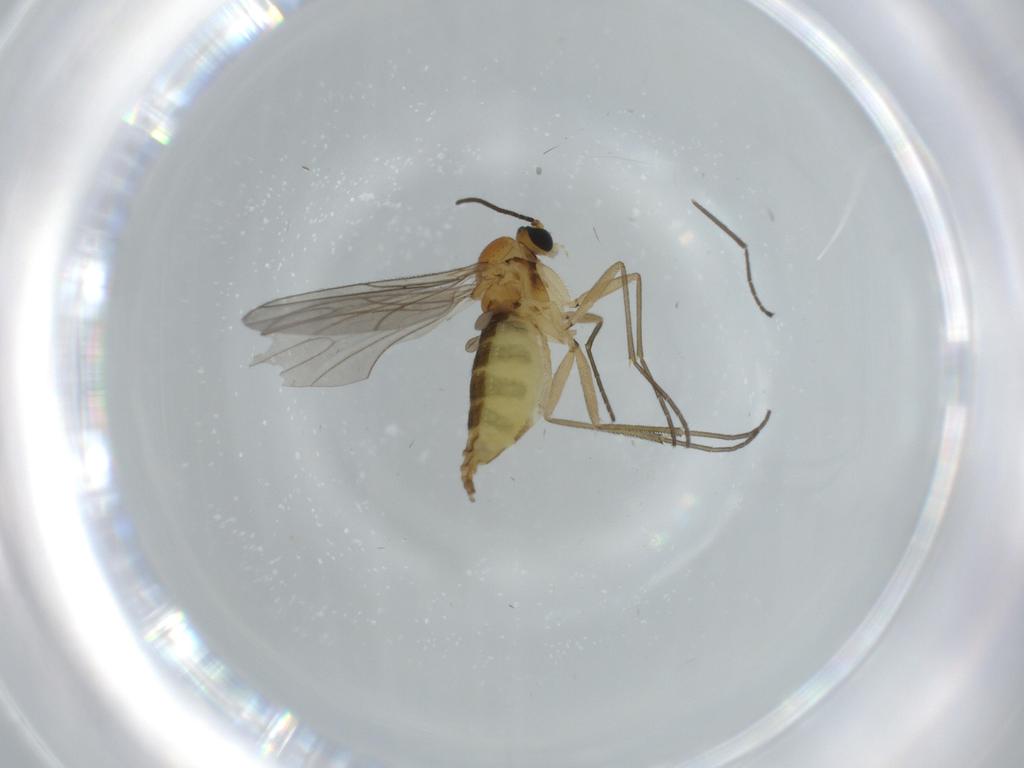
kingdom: Animalia
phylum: Arthropoda
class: Insecta
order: Diptera
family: Sciaridae
